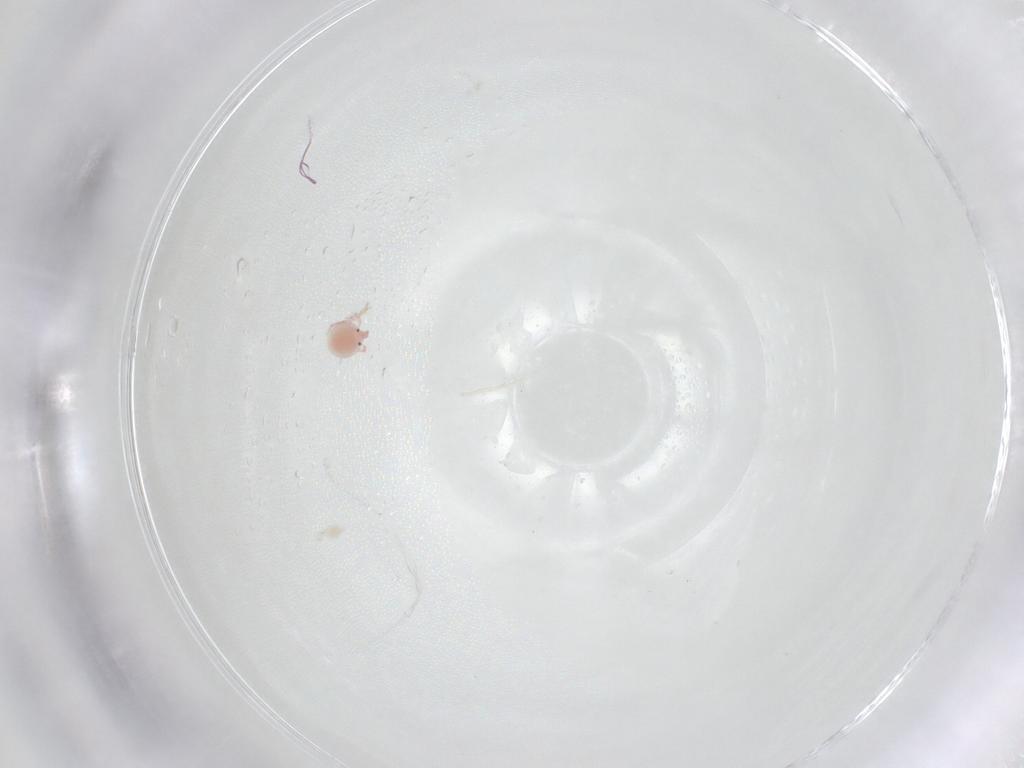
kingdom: Animalia
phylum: Arthropoda
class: Arachnida
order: Trombidiformes
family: Pionidae
